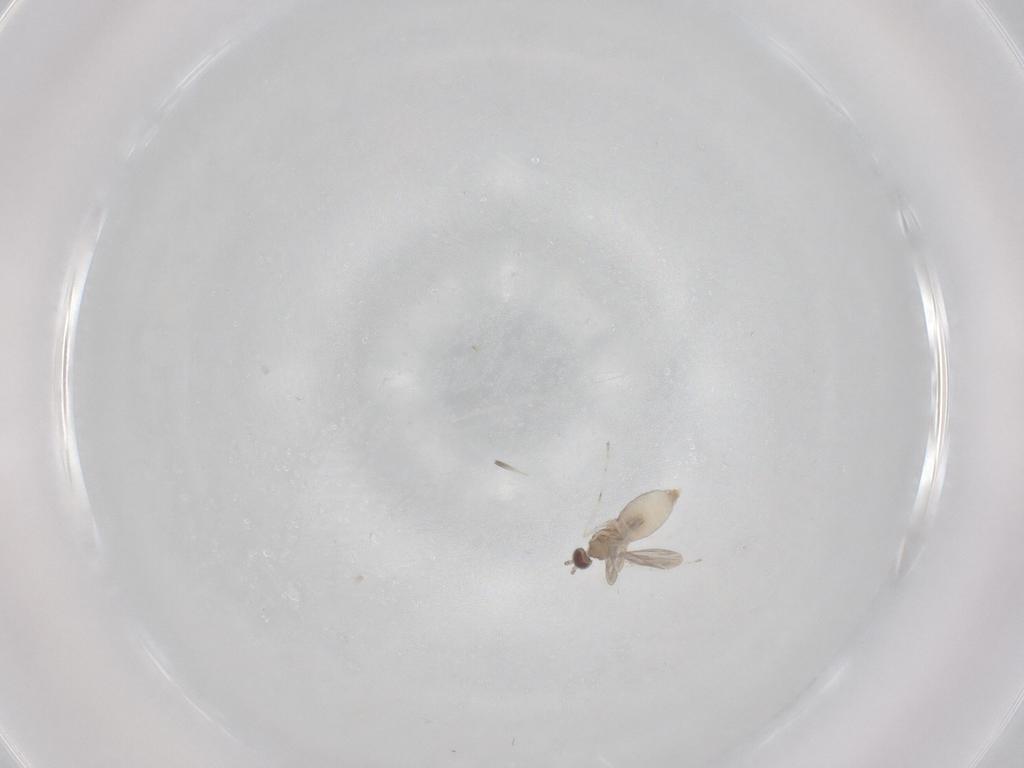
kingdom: Animalia
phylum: Arthropoda
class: Insecta
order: Diptera
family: Cecidomyiidae
